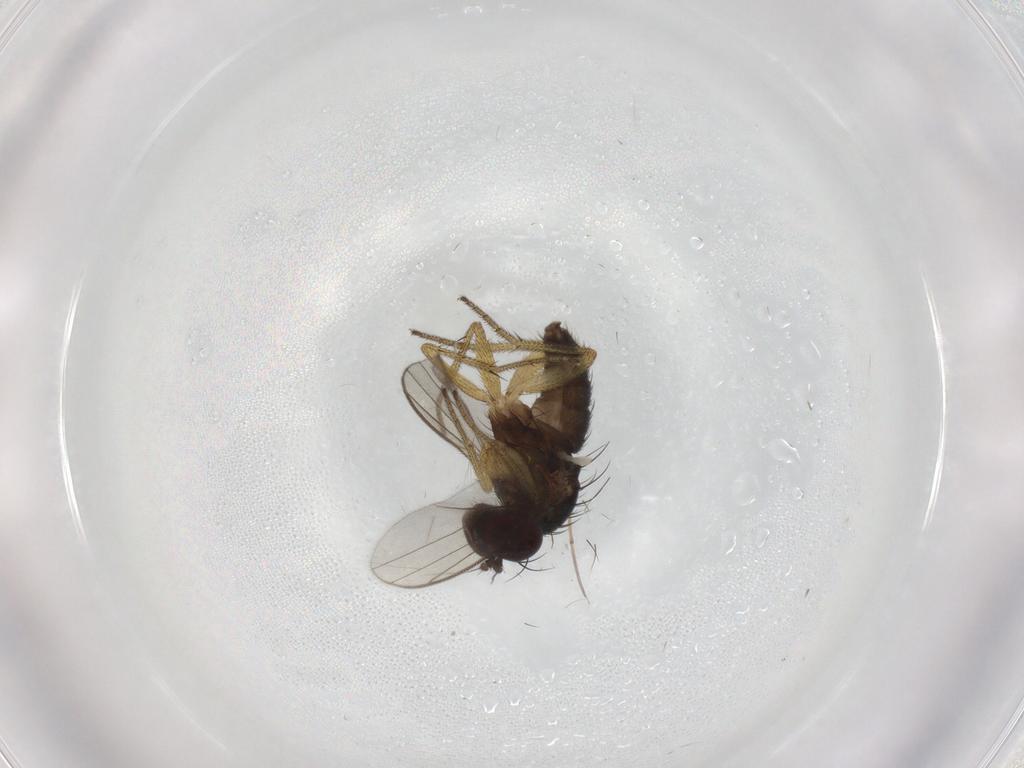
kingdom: Animalia
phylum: Arthropoda
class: Insecta
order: Diptera
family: Dolichopodidae
